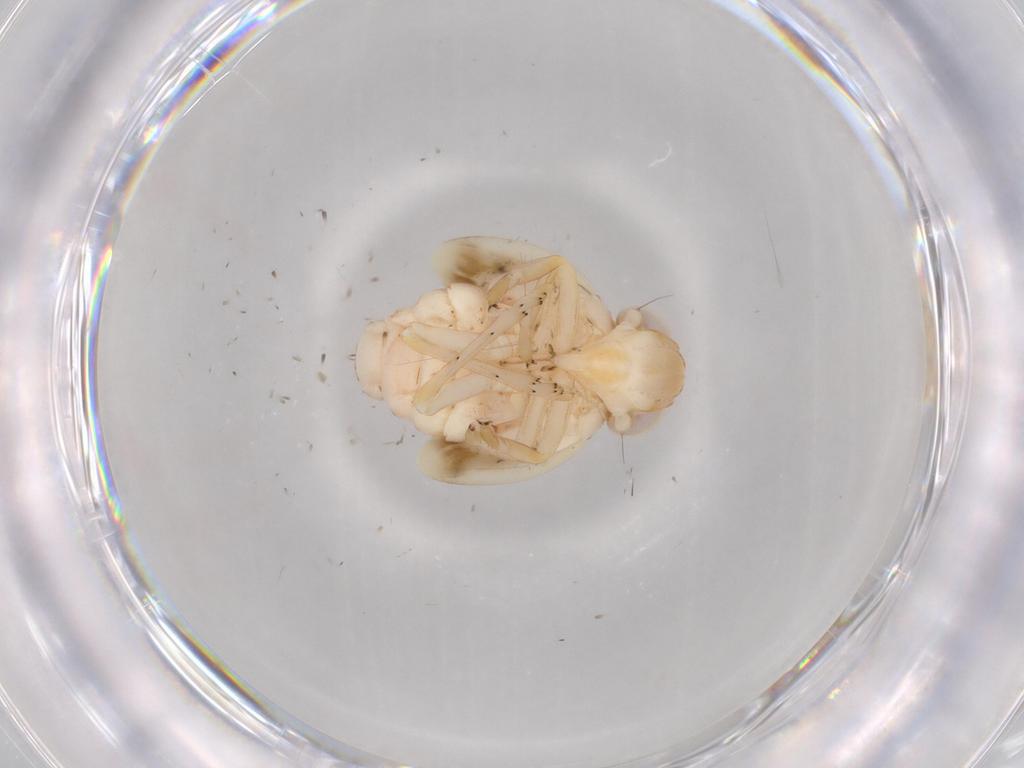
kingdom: Animalia
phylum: Arthropoda
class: Insecta
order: Hemiptera
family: Nogodinidae
